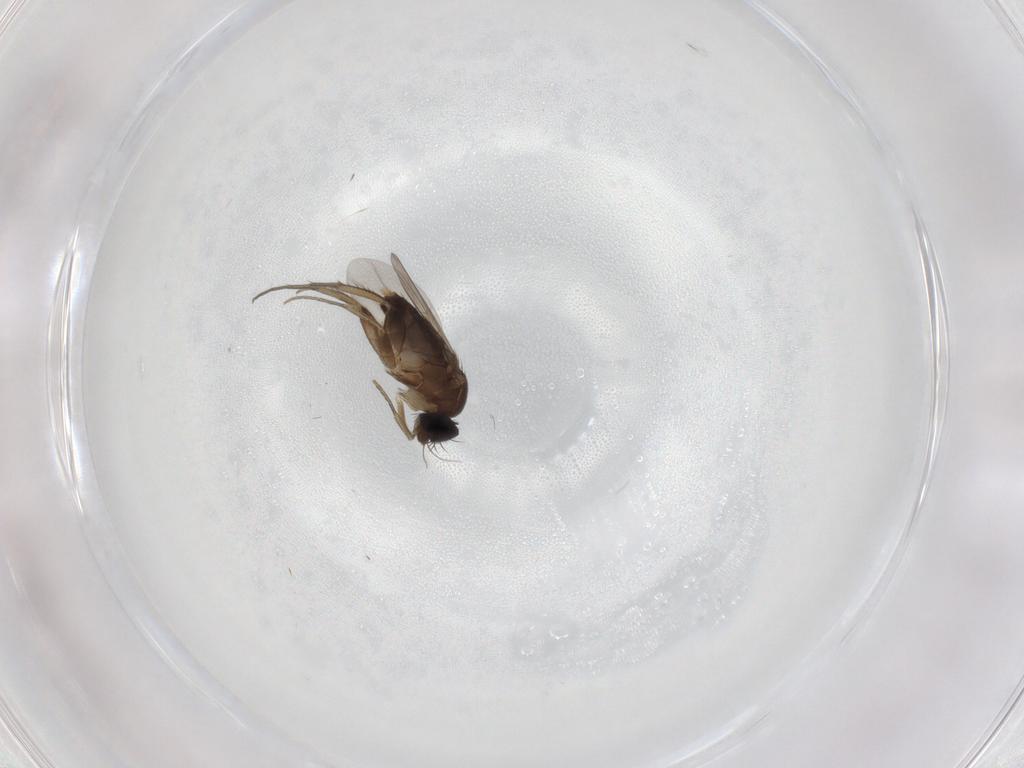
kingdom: Animalia
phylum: Arthropoda
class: Insecta
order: Diptera
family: Phoridae
